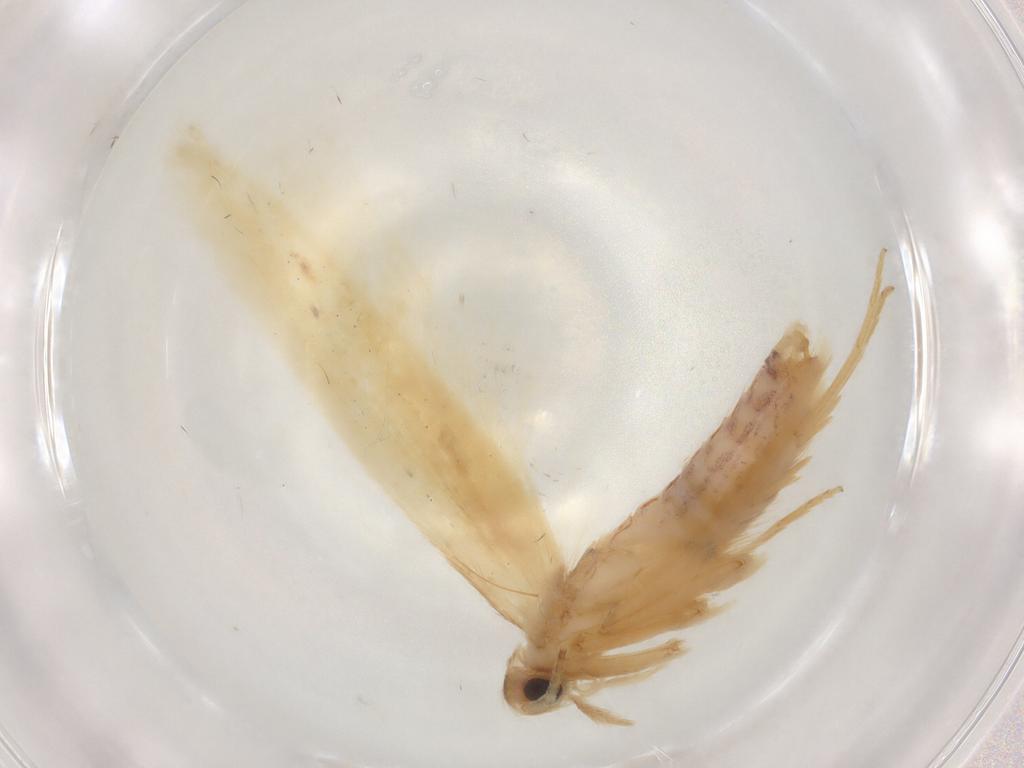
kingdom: Animalia
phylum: Arthropoda
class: Insecta
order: Lepidoptera
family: Coleophoridae
